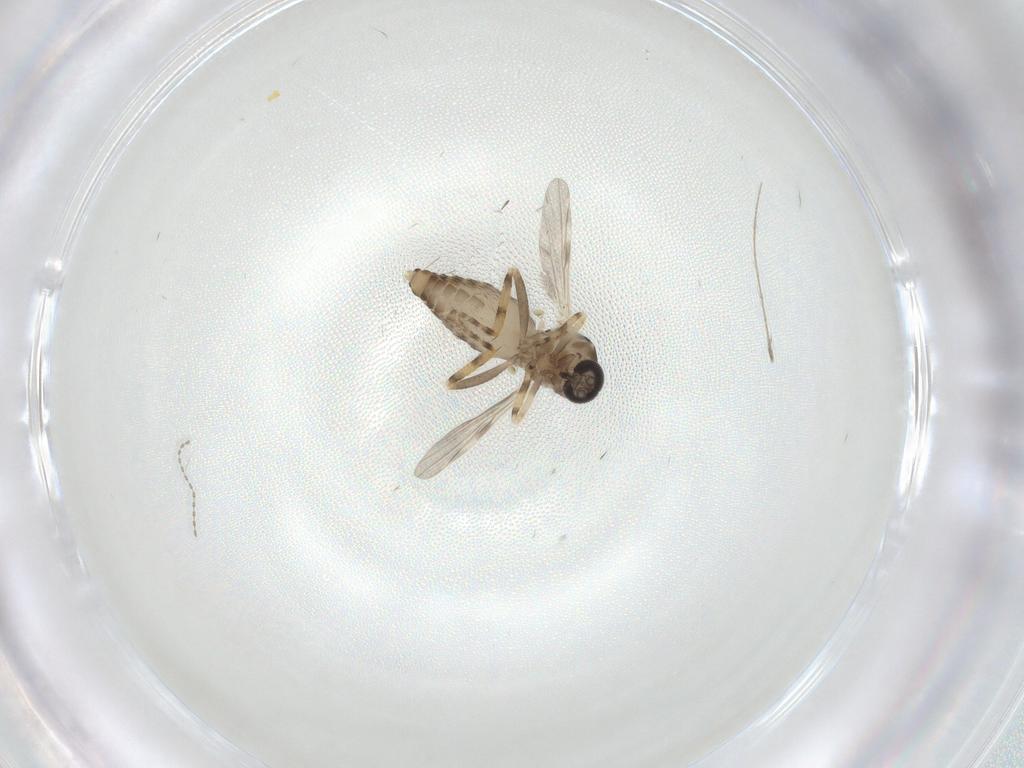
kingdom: Animalia
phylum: Arthropoda
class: Insecta
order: Diptera
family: Ceratopogonidae
